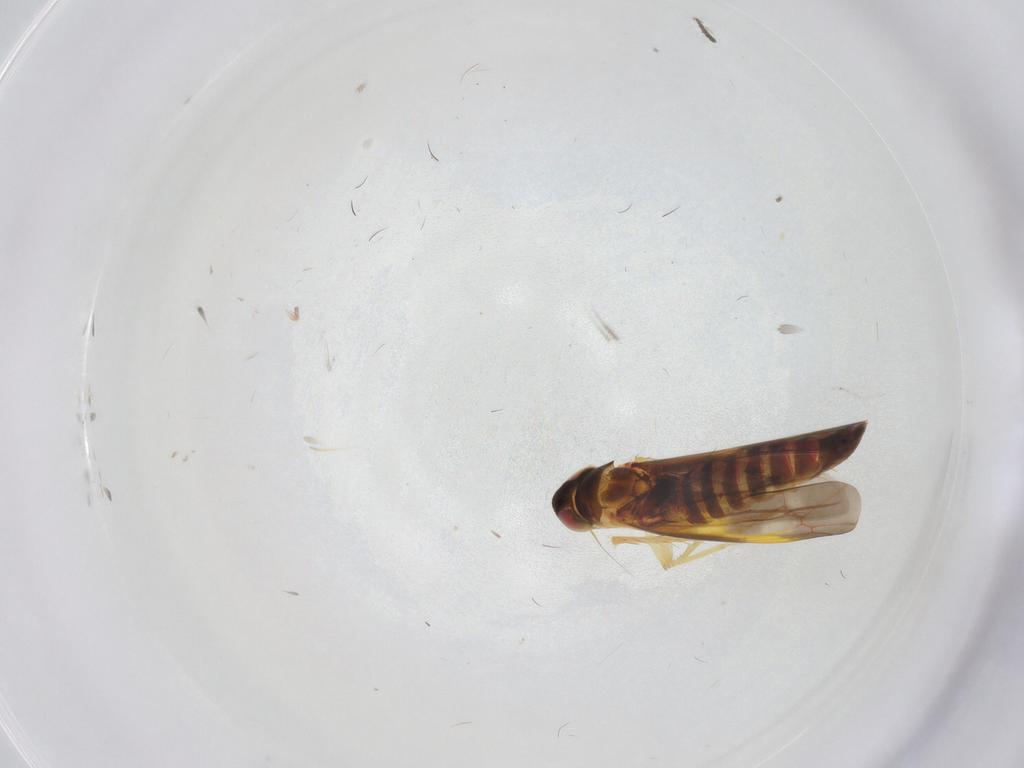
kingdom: Animalia
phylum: Arthropoda
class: Insecta
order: Hemiptera
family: Cicadellidae
